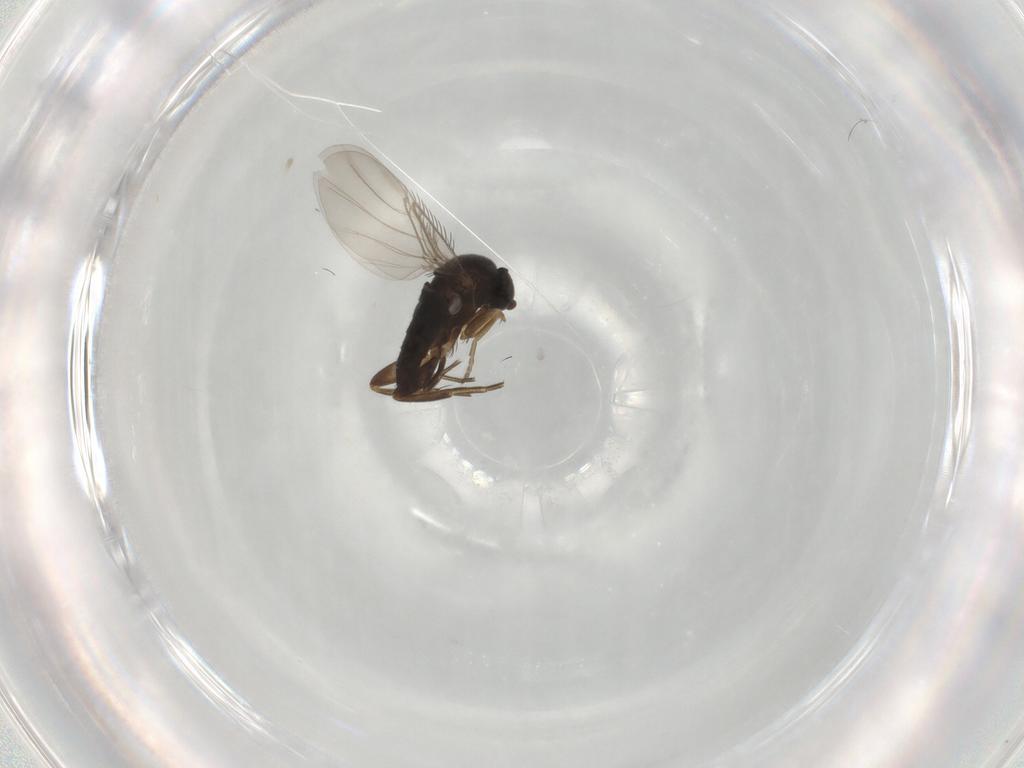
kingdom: Animalia
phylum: Arthropoda
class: Insecta
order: Diptera
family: Phoridae
